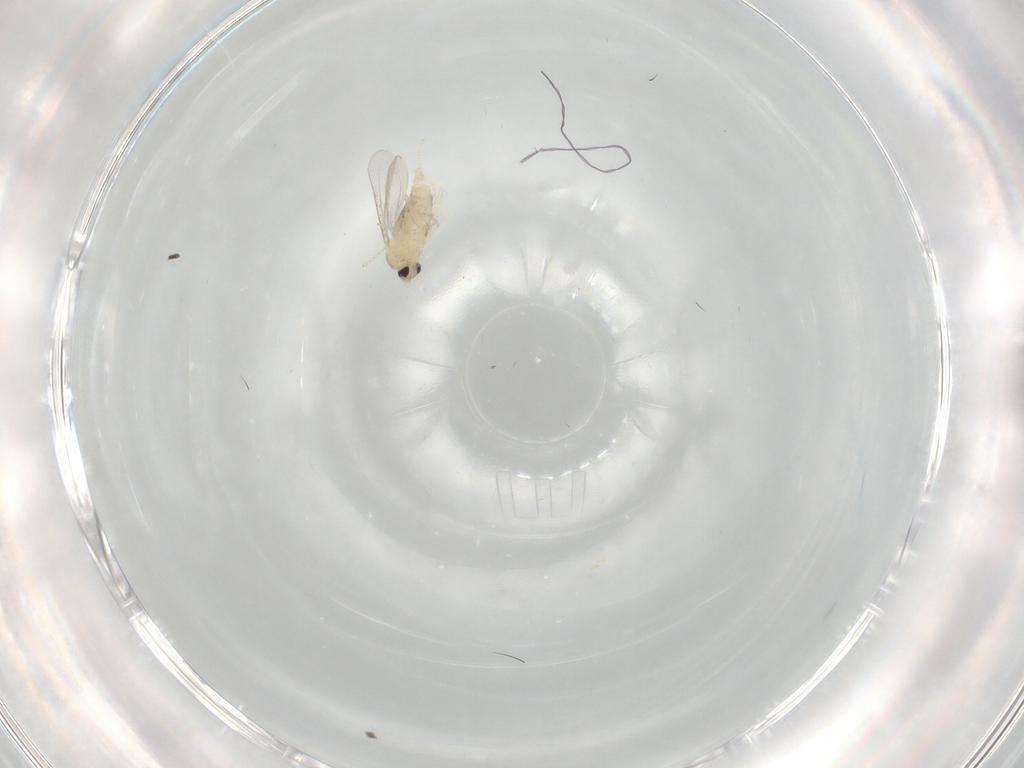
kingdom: Animalia
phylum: Arthropoda
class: Insecta
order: Diptera
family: Cecidomyiidae
